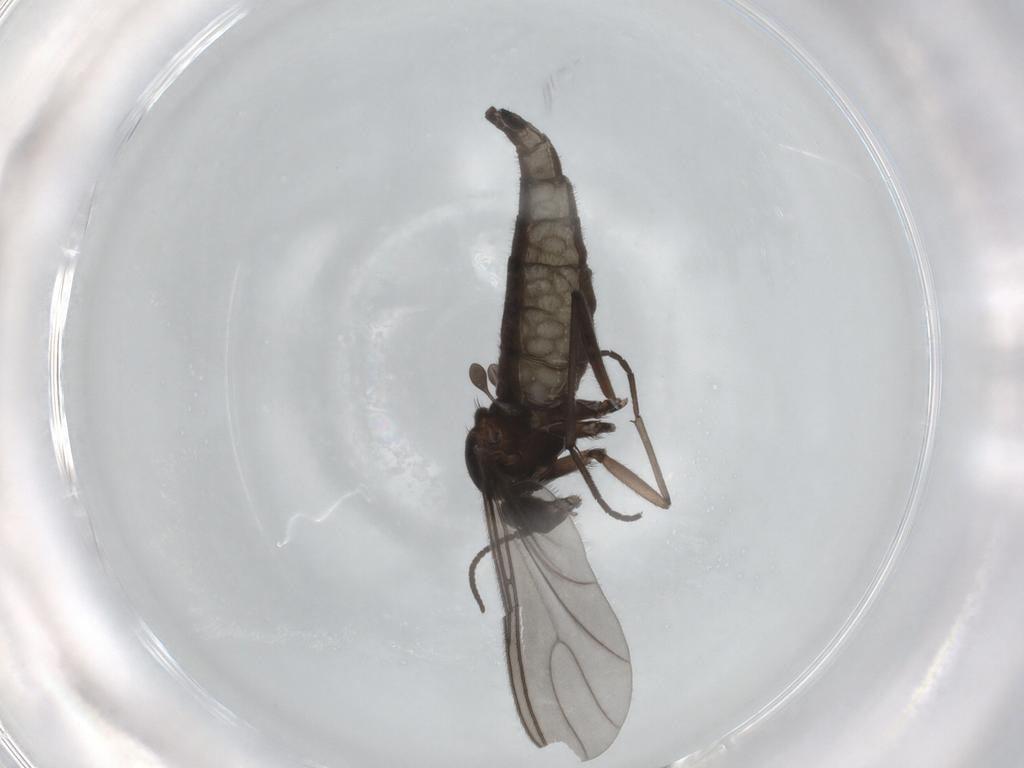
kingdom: Animalia
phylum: Arthropoda
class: Insecta
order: Diptera
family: Sciaridae
